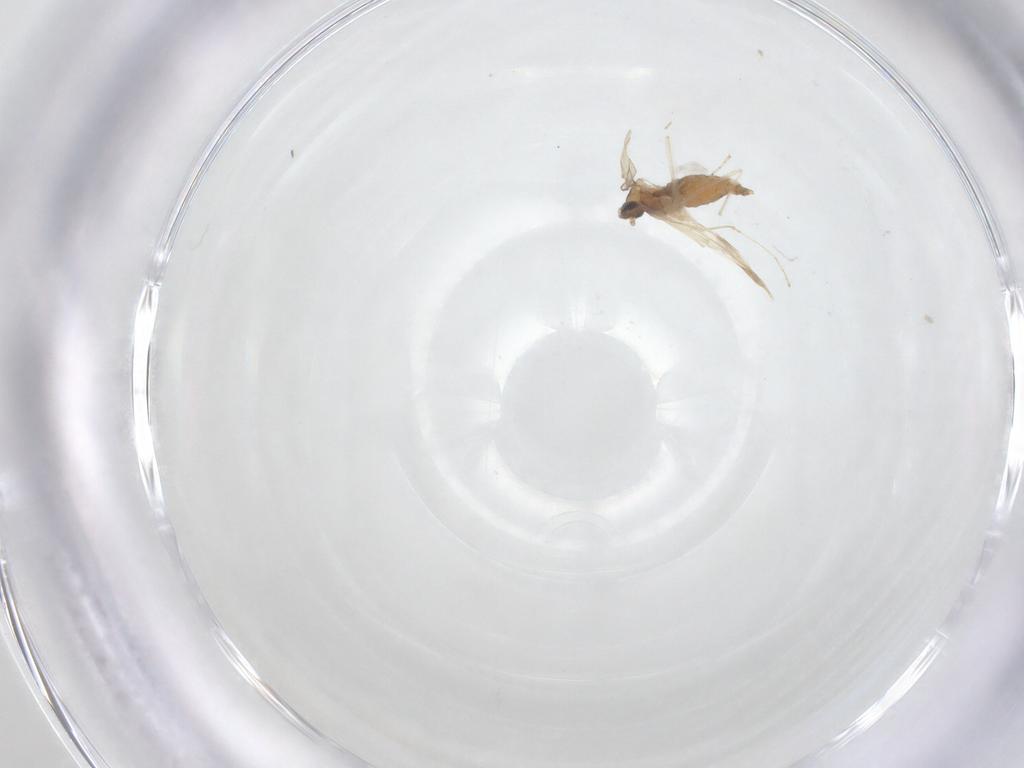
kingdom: Animalia
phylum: Arthropoda
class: Insecta
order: Diptera
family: Cecidomyiidae
